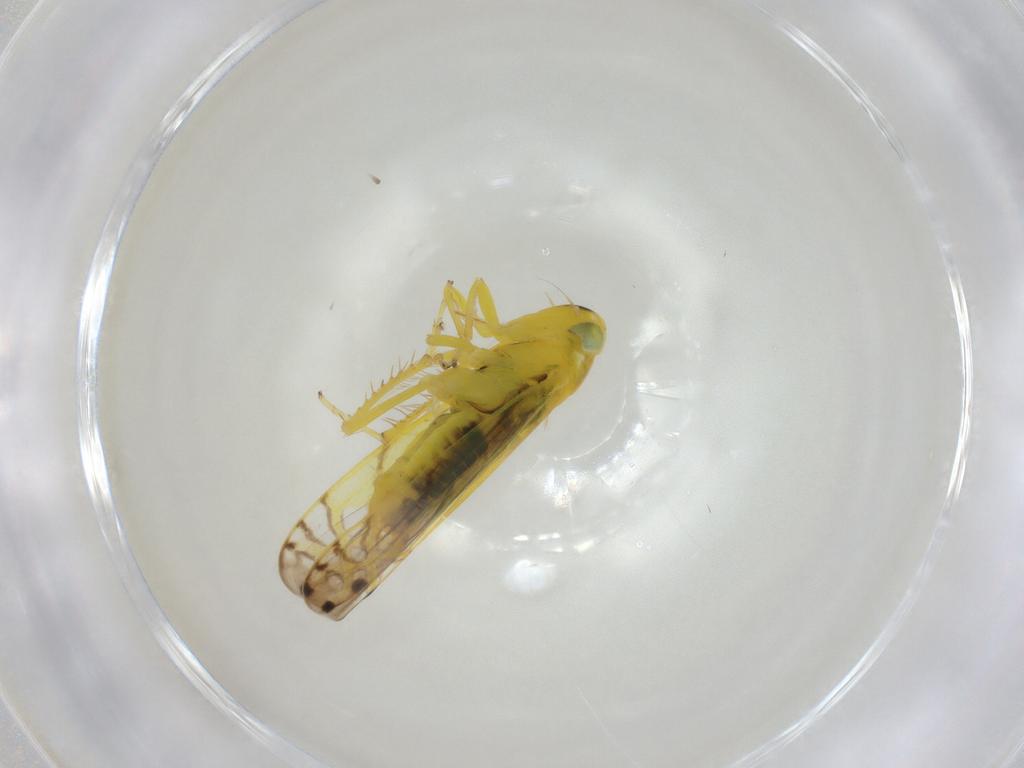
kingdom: Animalia
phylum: Arthropoda
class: Insecta
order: Hemiptera
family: Cicadellidae
